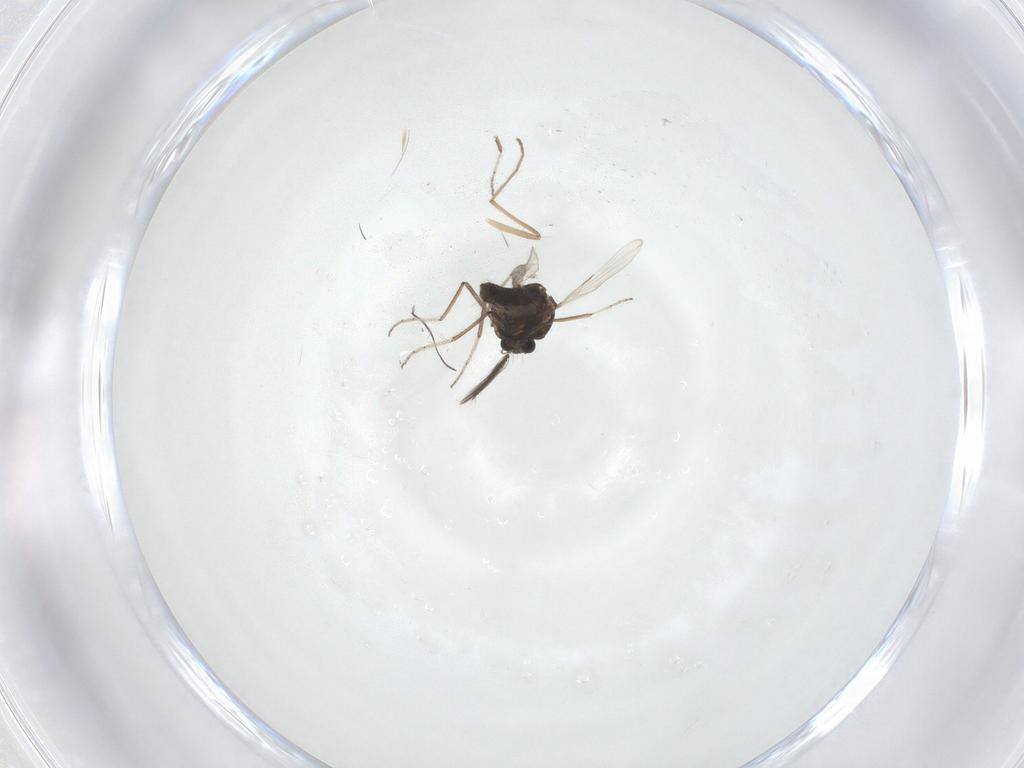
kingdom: Animalia
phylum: Arthropoda
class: Insecta
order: Diptera
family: Ceratopogonidae
